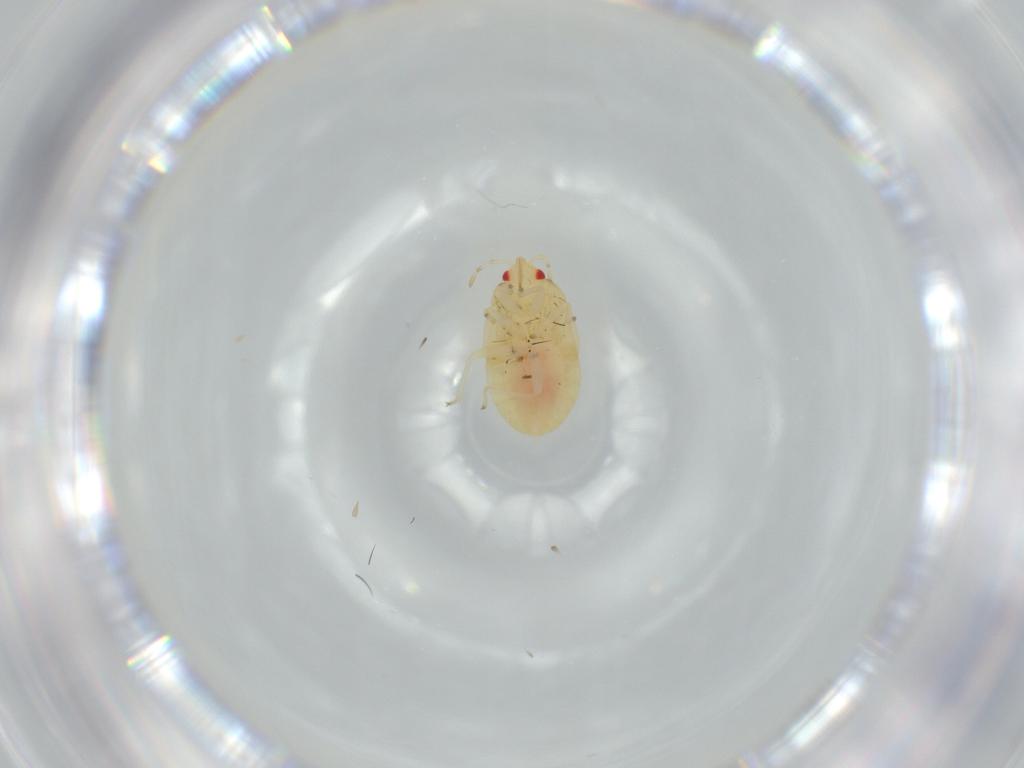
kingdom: Animalia
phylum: Arthropoda
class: Insecta
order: Hemiptera
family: Anthocoridae
